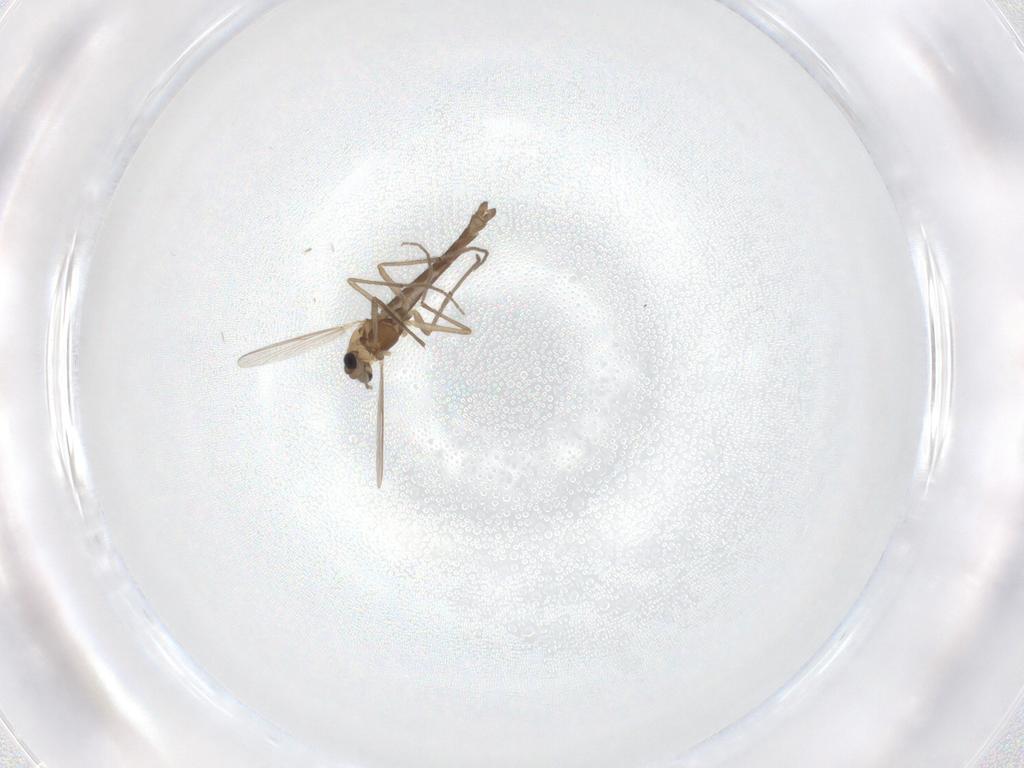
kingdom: Animalia
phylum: Arthropoda
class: Insecta
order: Diptera
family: Chironomidae
